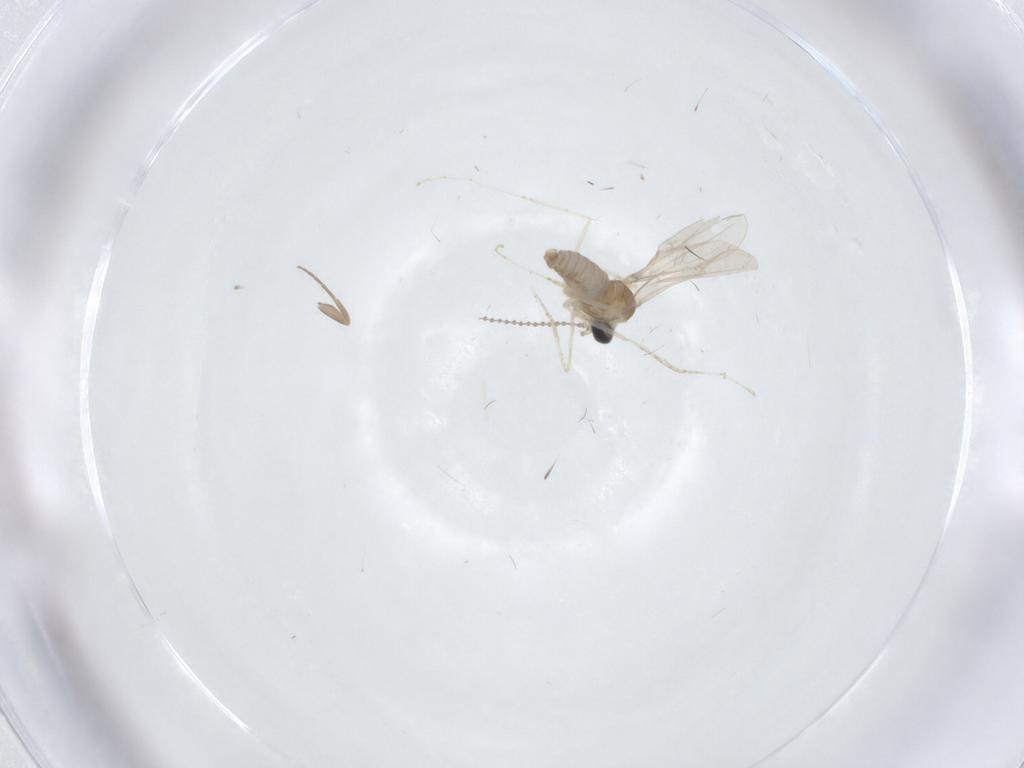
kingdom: Animalia
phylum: Arthropoda
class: Insecta
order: Diptera
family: Phoridae
